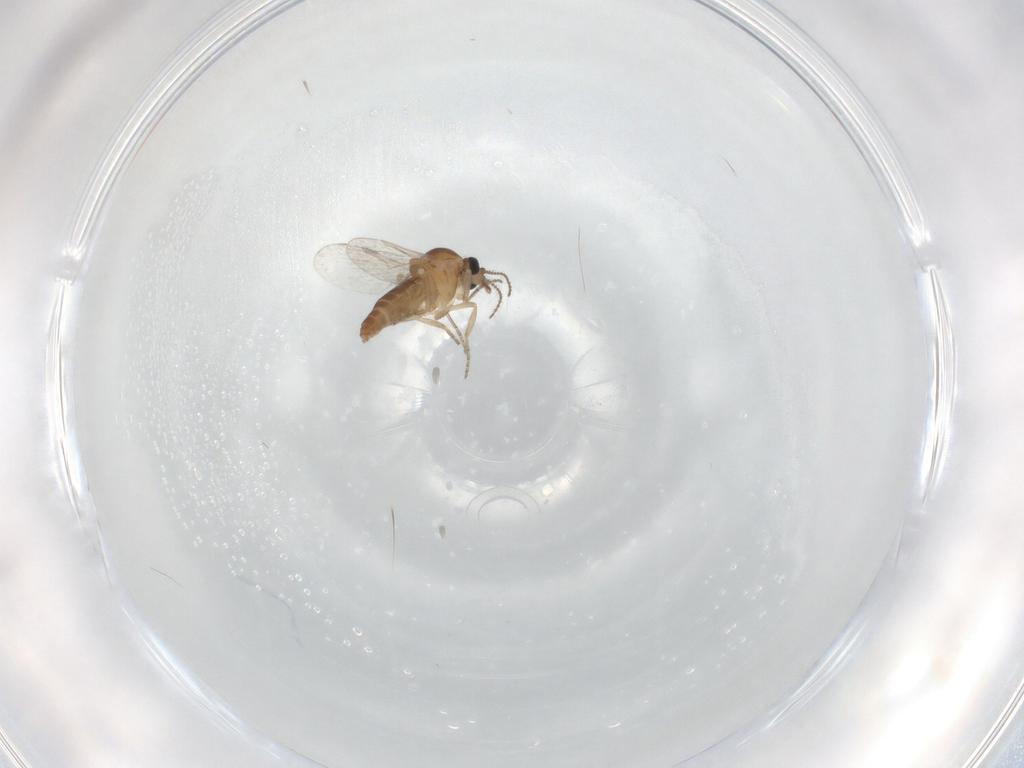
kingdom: Animalia
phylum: Arthropoda
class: Insecta
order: Diptera
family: Ceratopogonidae
